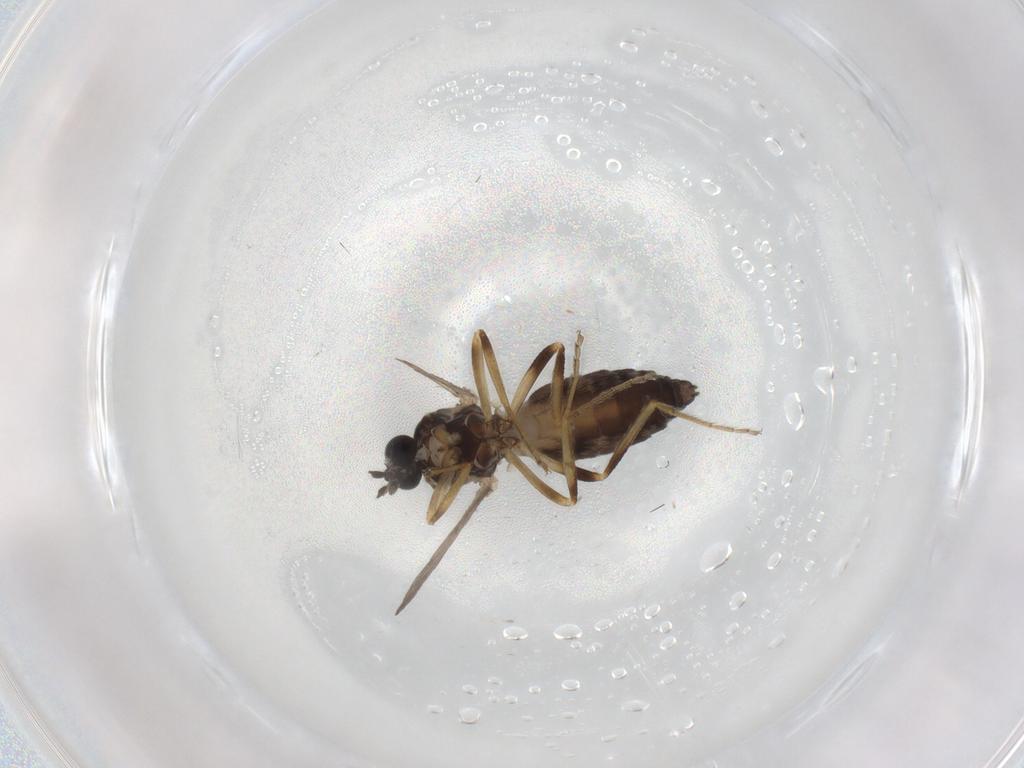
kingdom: Animalia
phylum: Arthropoda
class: Insecta
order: Diptera
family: Ceratopogonidae
